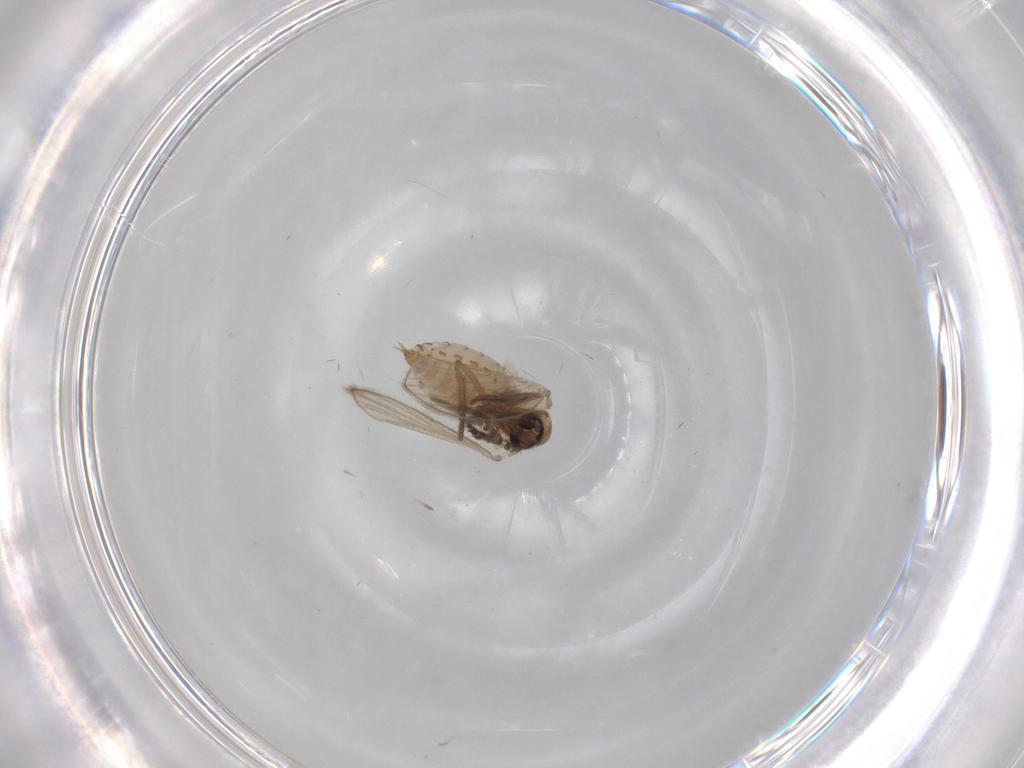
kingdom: Animalia
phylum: Arthropoda
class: Insecta
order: Diptera
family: Psychodidae
